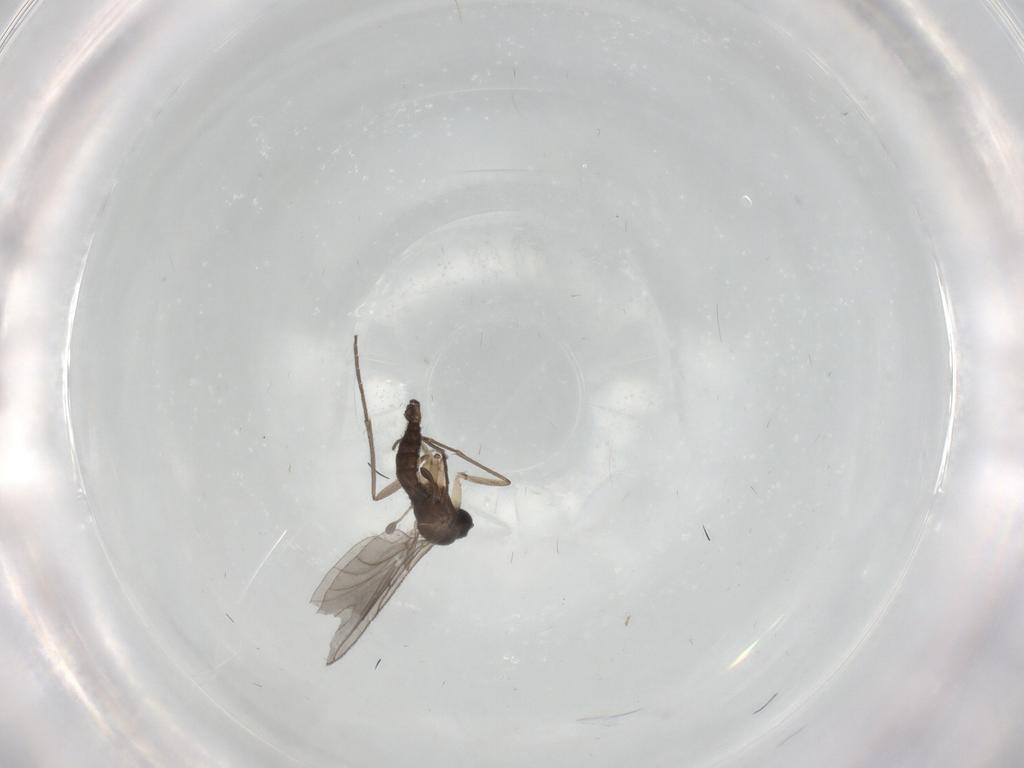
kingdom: Animalia
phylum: Arthropoda
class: Insecta
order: Diptera
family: Sciaridae
